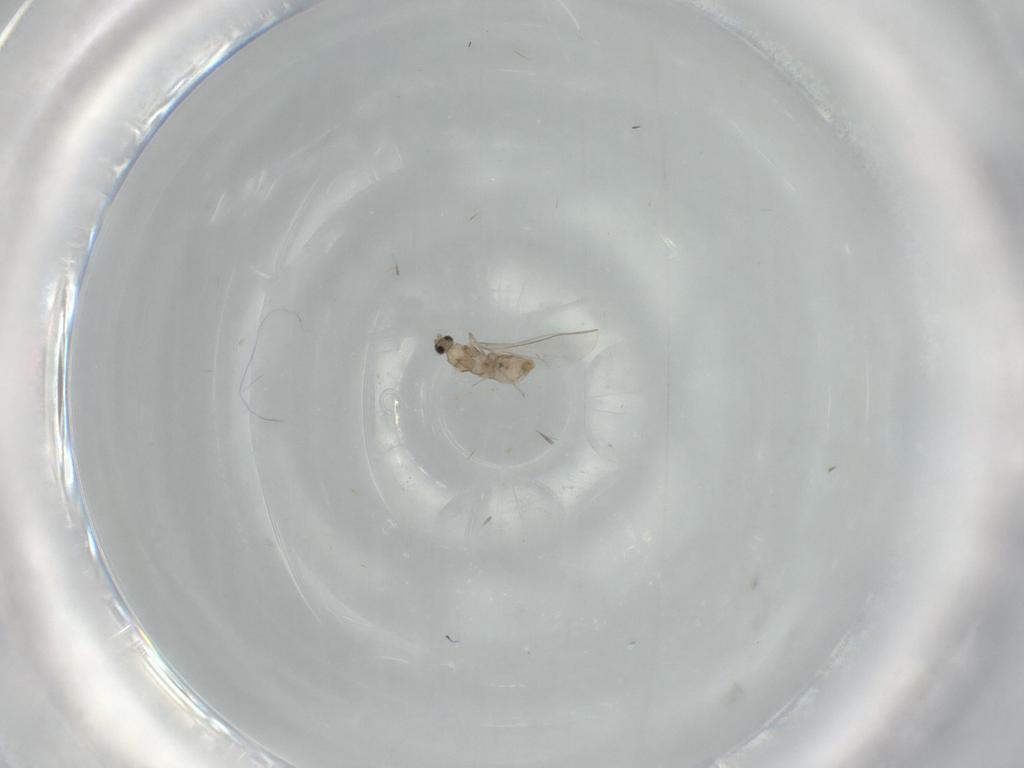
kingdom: Animalia
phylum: Arthropoda
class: Insecta
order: Diptera
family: Cecidomyiidae
